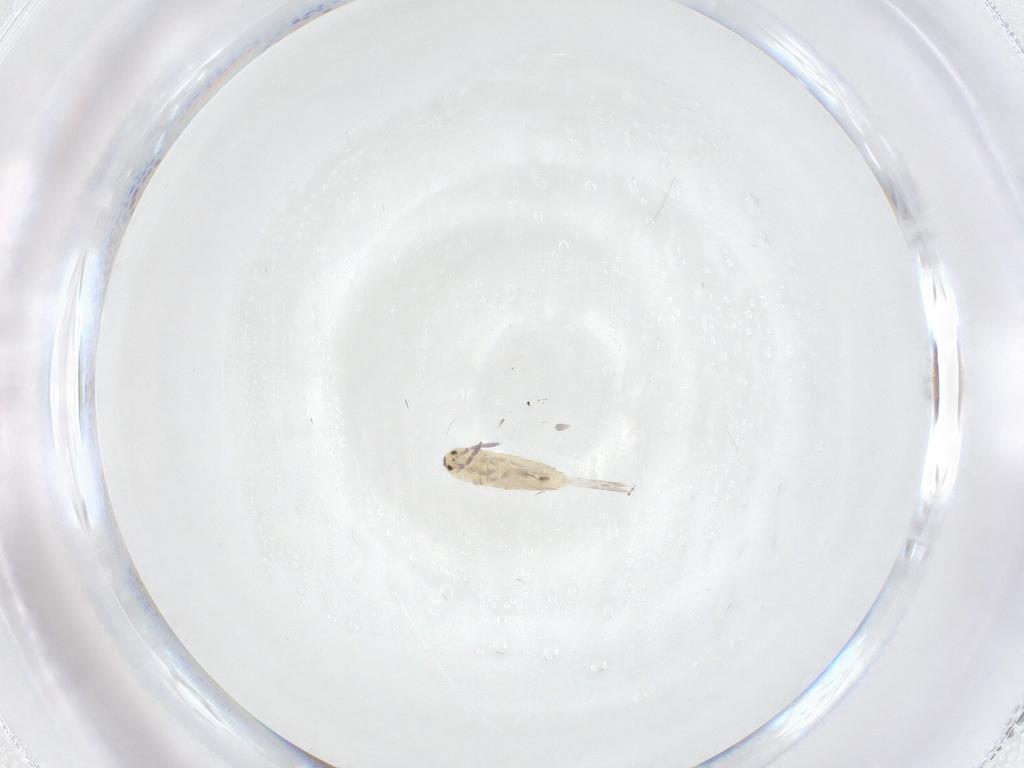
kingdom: Animalia
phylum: Arthropoda
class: Collembola
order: Entomobryomorpha
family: Entomobryidae
